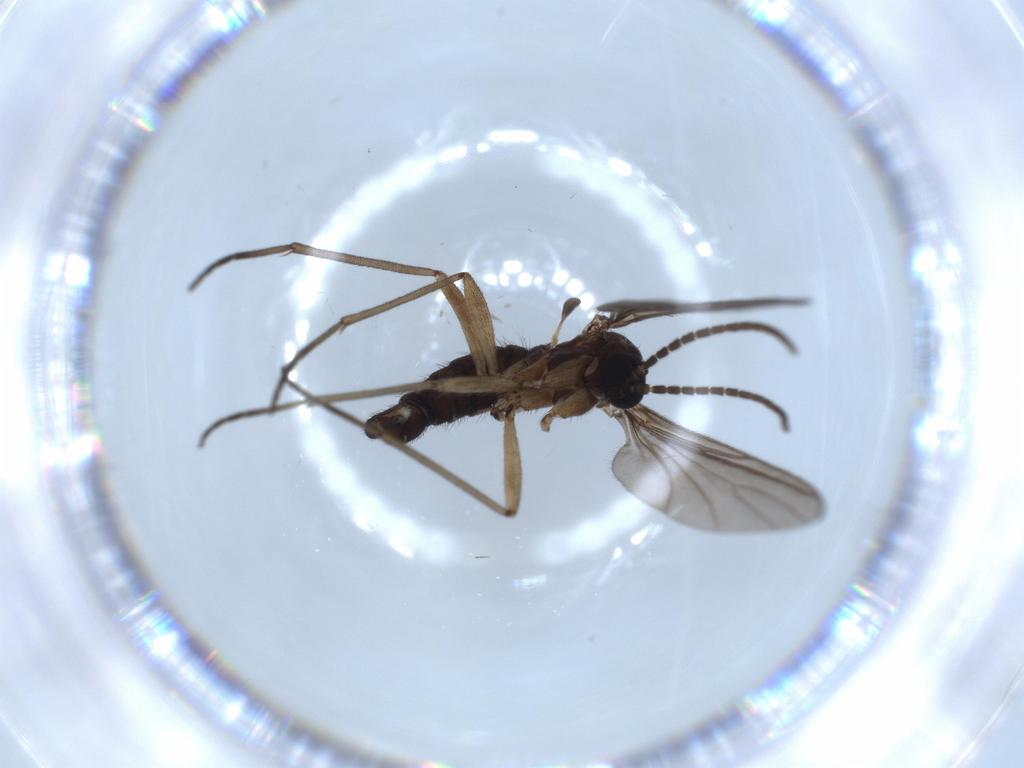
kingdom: Animalia
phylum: Arthropoda
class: Insecta
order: Diptera
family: Sciaridae
